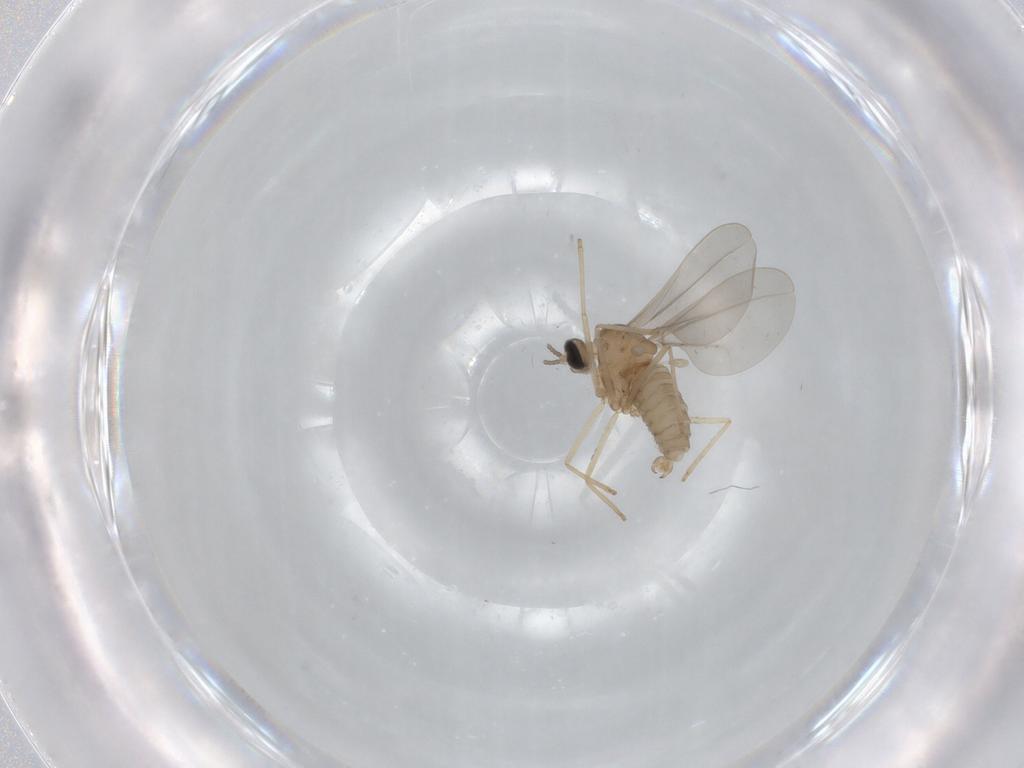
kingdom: Animalia
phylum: Arthropoda
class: Insecta
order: Diptera
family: Cecidomyiidae
